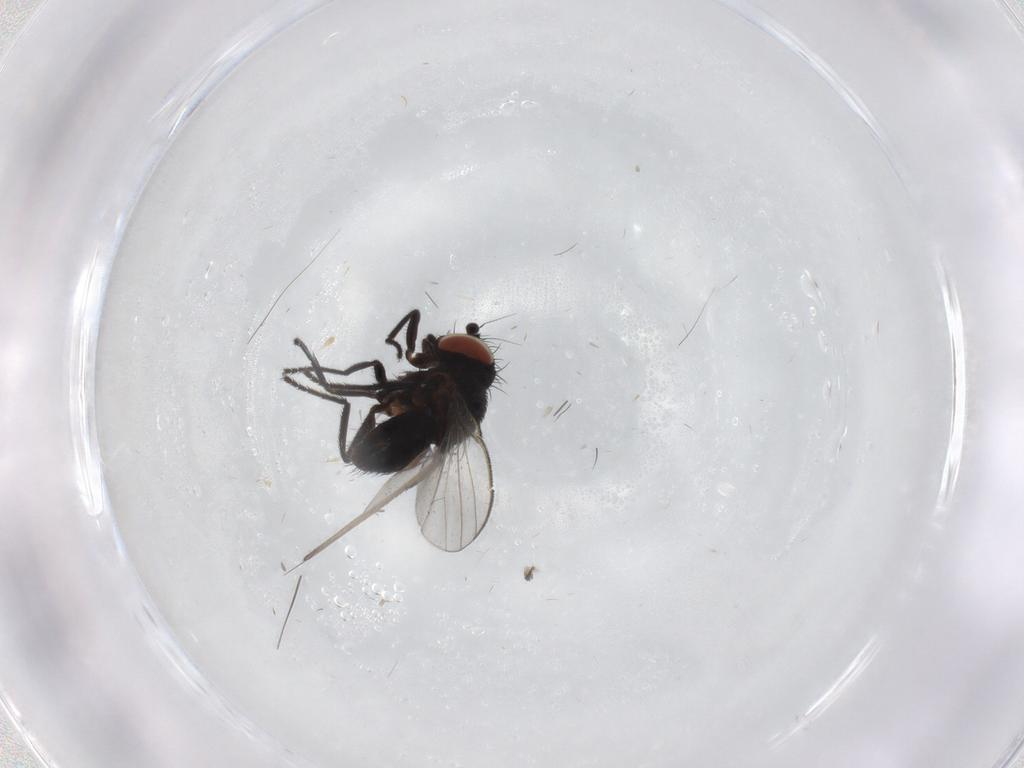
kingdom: Animalia
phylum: Arthropoda
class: Insecta
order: Diptera
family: Milichiidae
